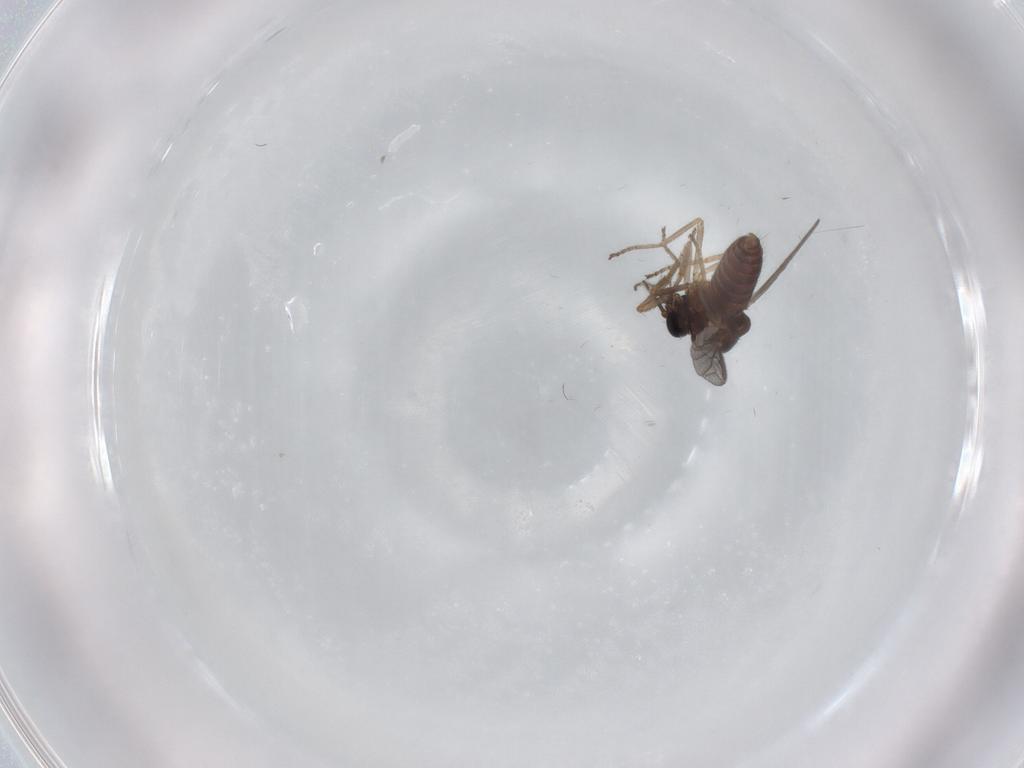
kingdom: Animalia
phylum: Arthropoda
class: Insecta
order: Diptera
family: Ceratopogonidae
